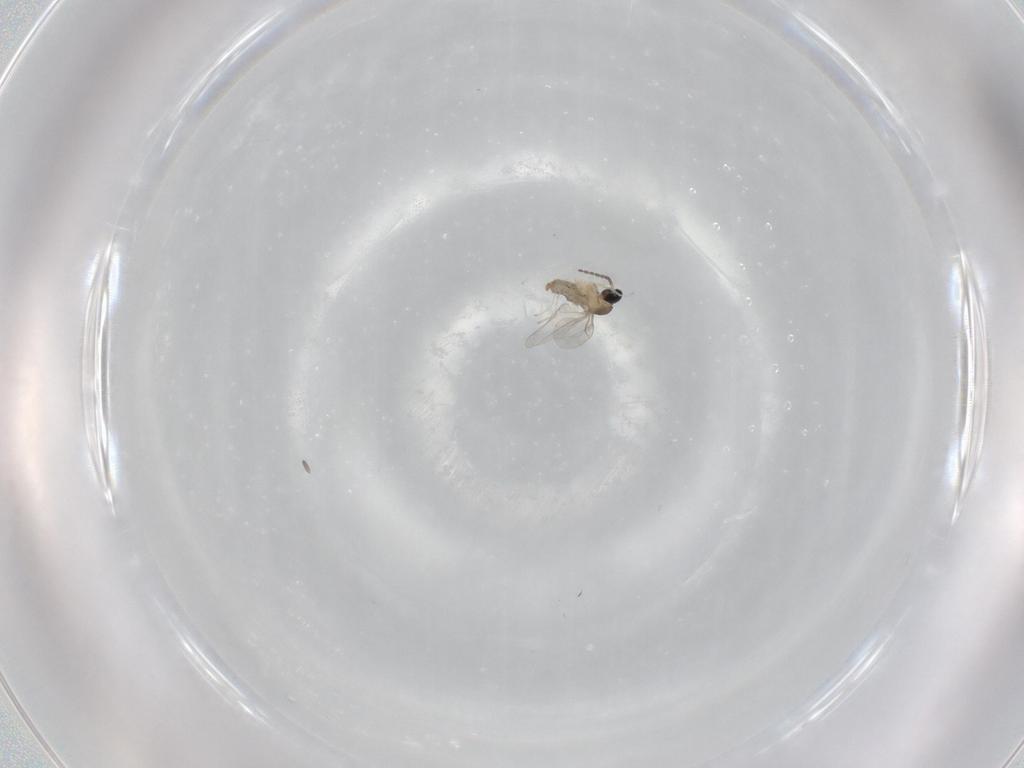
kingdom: Animalia
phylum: Arthropoda
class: Insecta
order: Diptera
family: Cecidomyiidae
